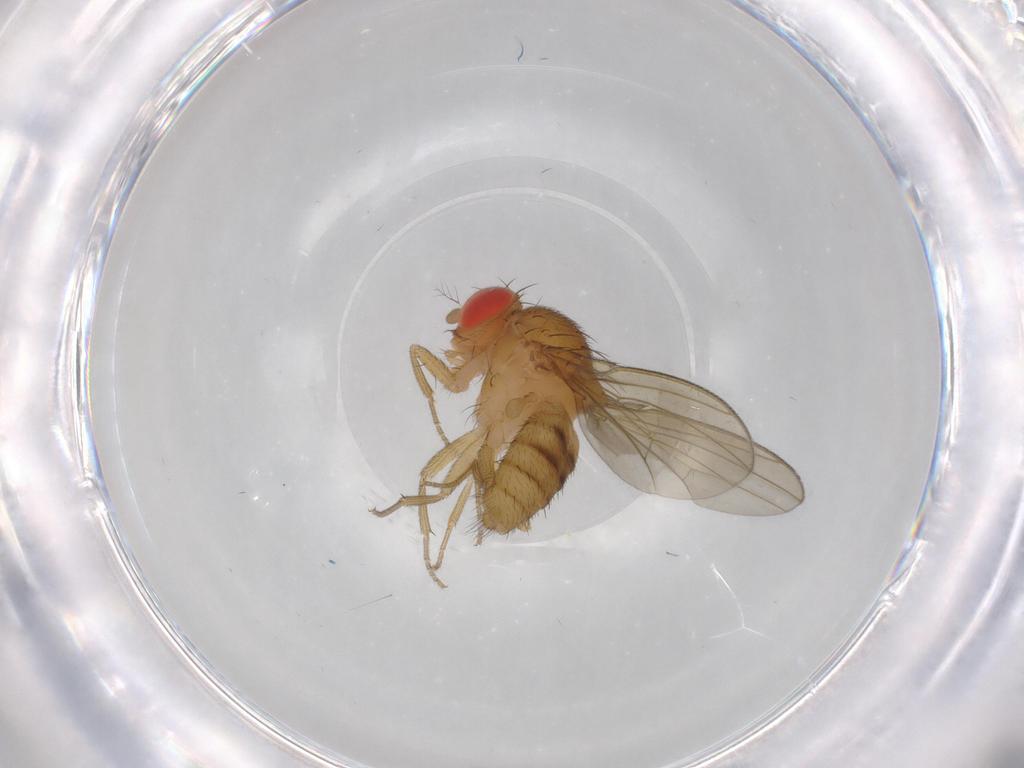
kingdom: Animalia
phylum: Arthropoda
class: Insecta
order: Diptera
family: Drosophilidae
